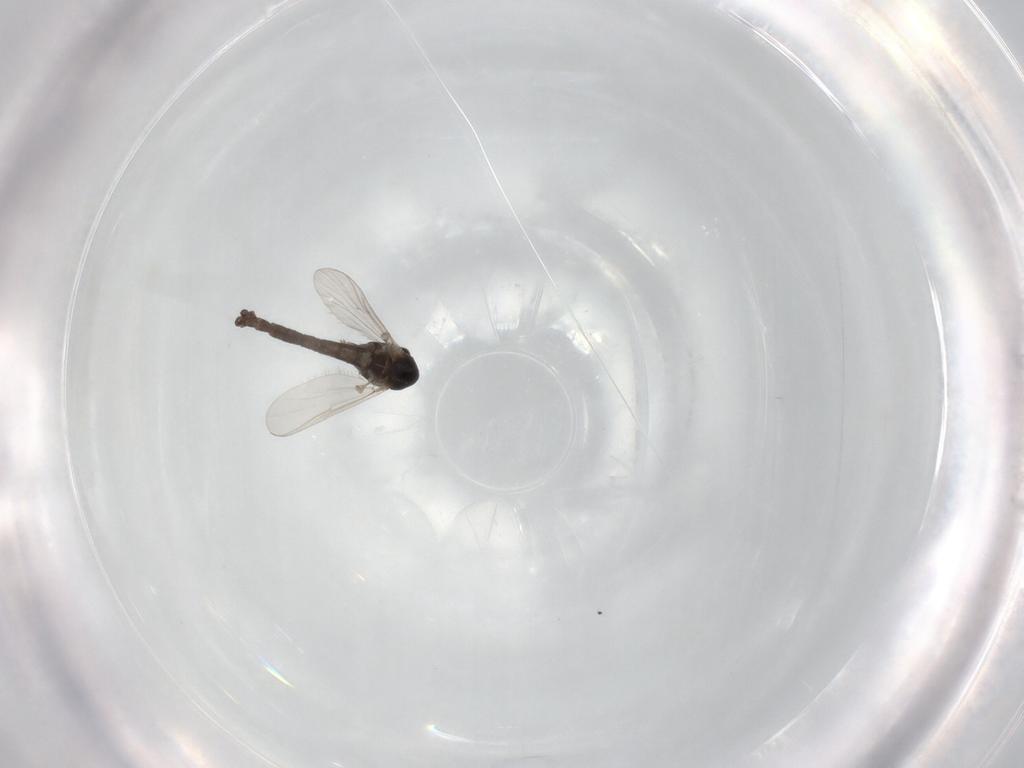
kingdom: Animalia
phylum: Arthropoda
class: Insecta
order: Diptera
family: Chironomidae
